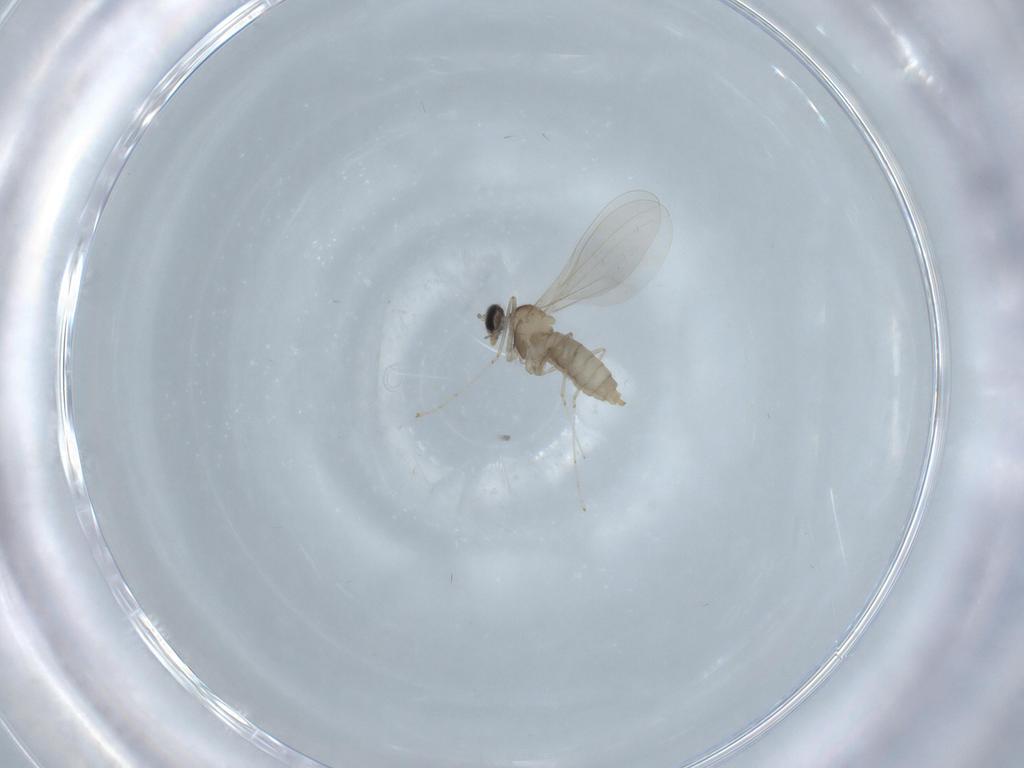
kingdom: Animalia
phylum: Arthropoda
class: Insecta
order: Diptera
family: Cecidomyiidae
